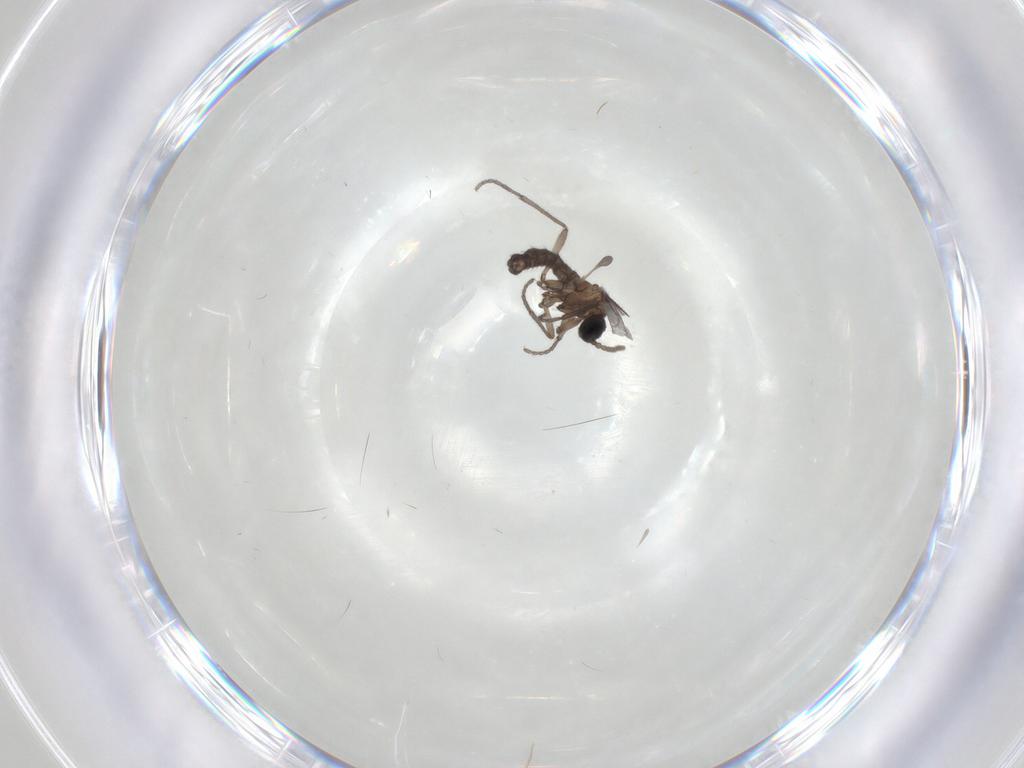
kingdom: Animalia
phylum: Arthropoda
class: Insecta
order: Diptera
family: Sciaridae
